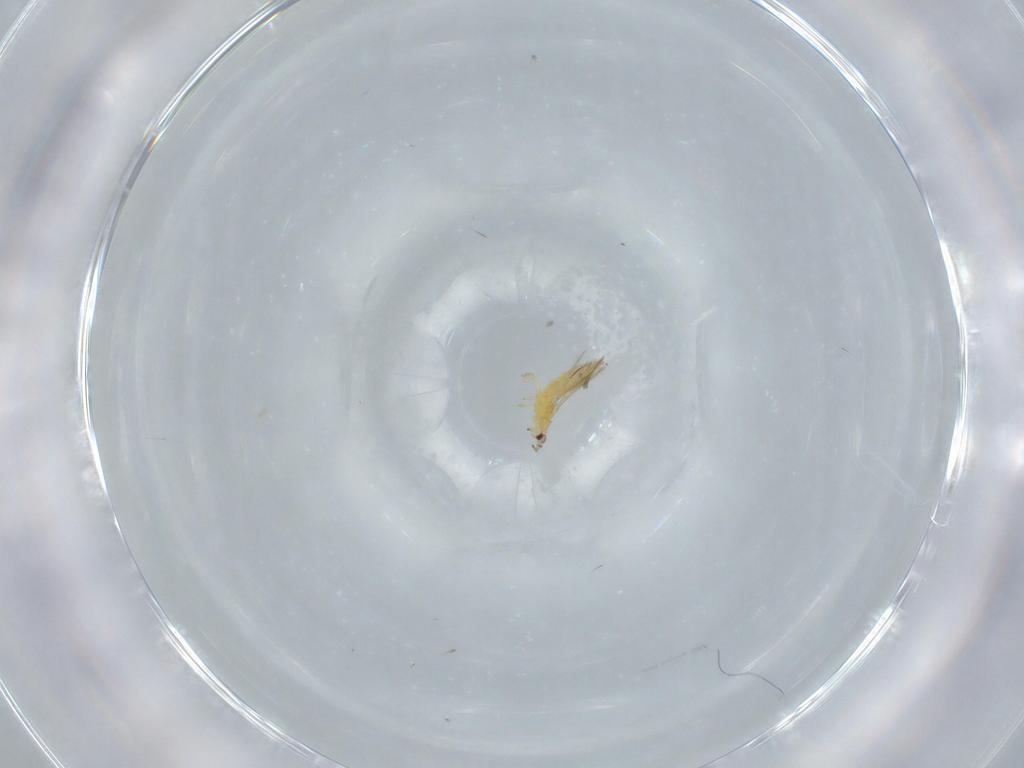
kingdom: Animalia
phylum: Arthropoda
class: Insecta
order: Thysanoptera
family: Thripidae
